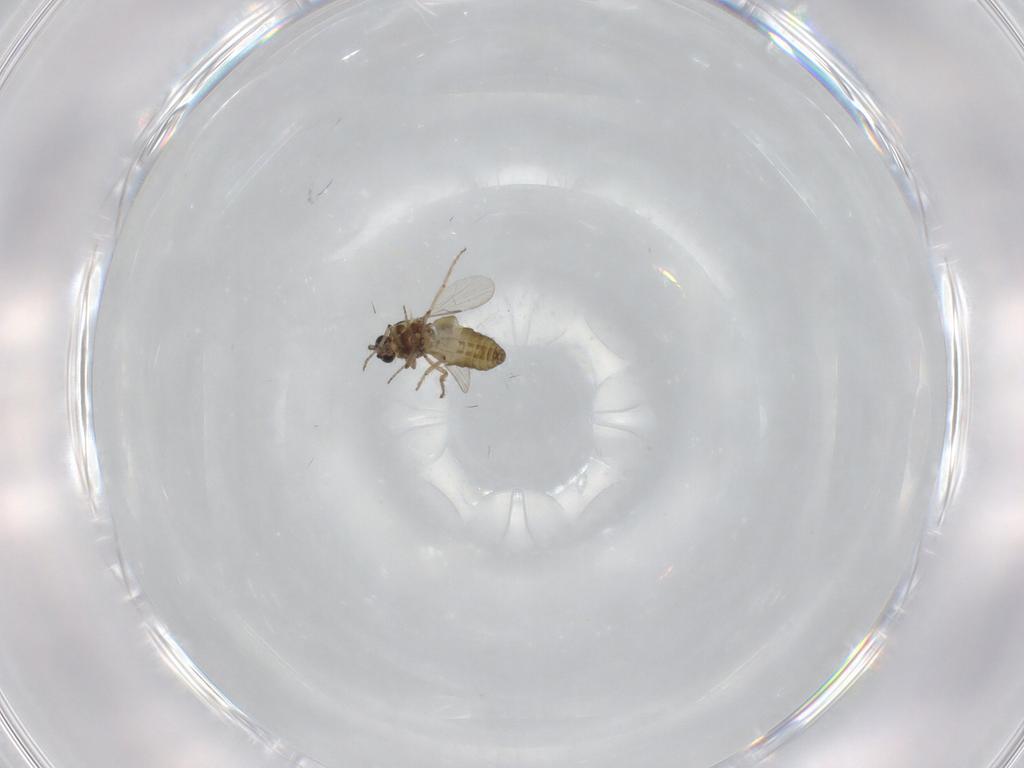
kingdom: Animalia
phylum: Arthropoda
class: Insecta
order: Diptera
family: Ceratopogonidae
